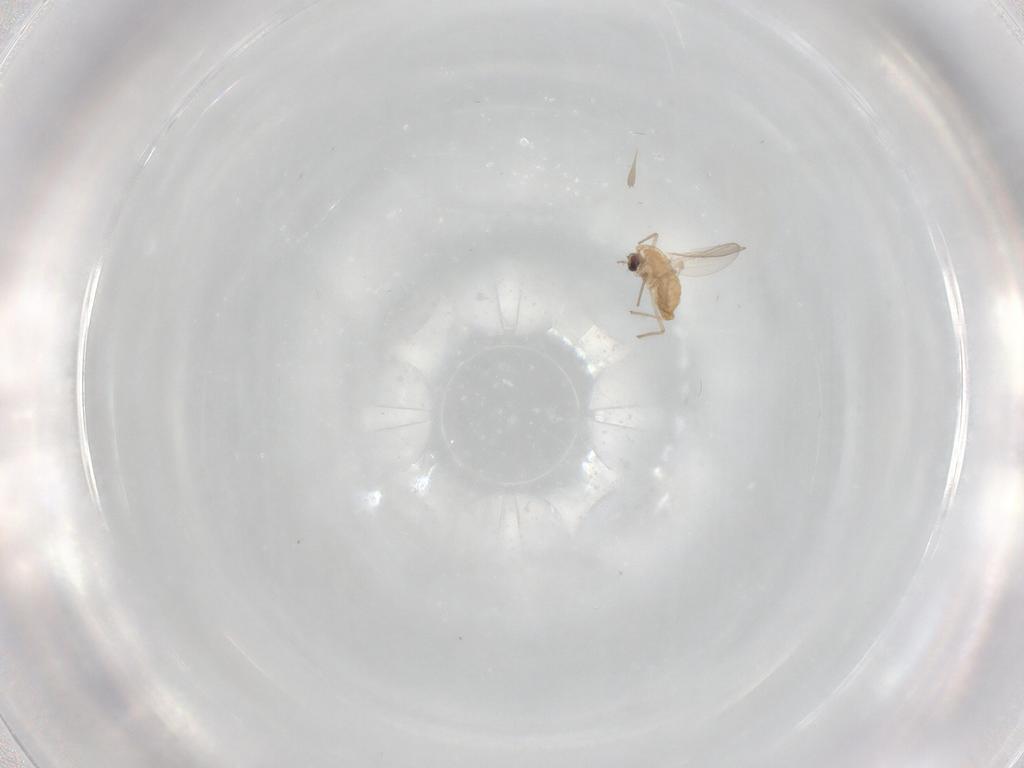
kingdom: Animalia
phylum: Arthropoda
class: Insecta
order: Diptera
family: Chironomidae
